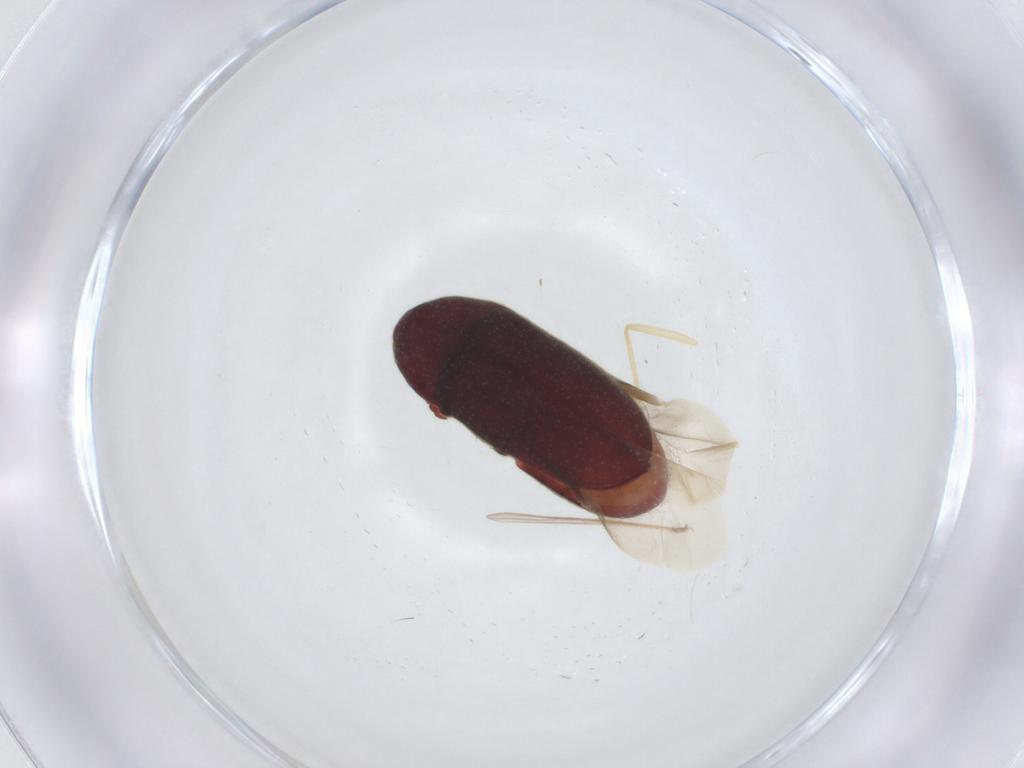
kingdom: Animalia
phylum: Arthropoda
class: Insecta
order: Coleoptera
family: Throscidae
